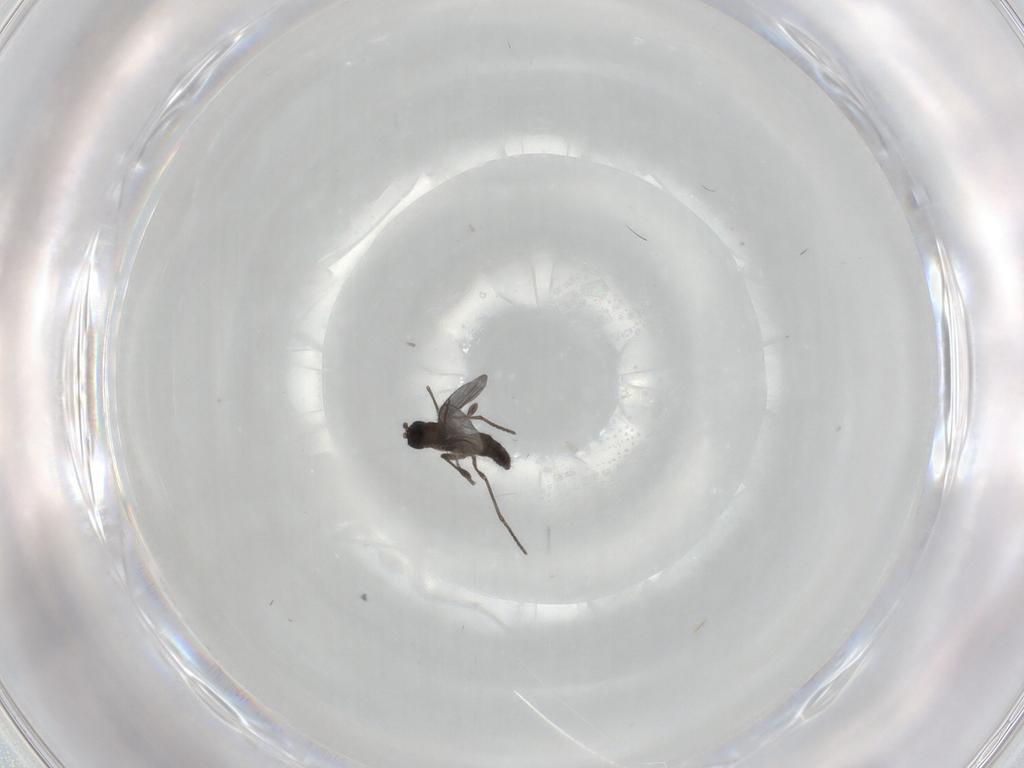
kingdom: Animalia
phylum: Arthropoda
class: Insecta
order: Diptera
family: Tabanidae
